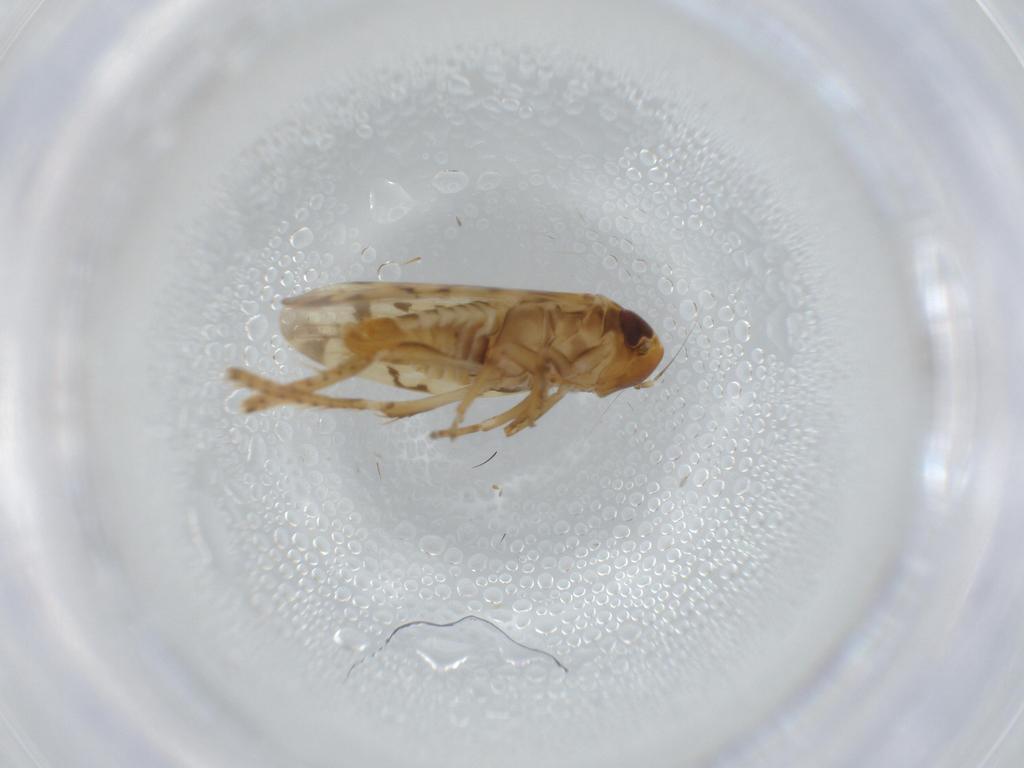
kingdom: Animalia
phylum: Arthropoda
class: Insecta
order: Hemiptera
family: Cicadellidae
